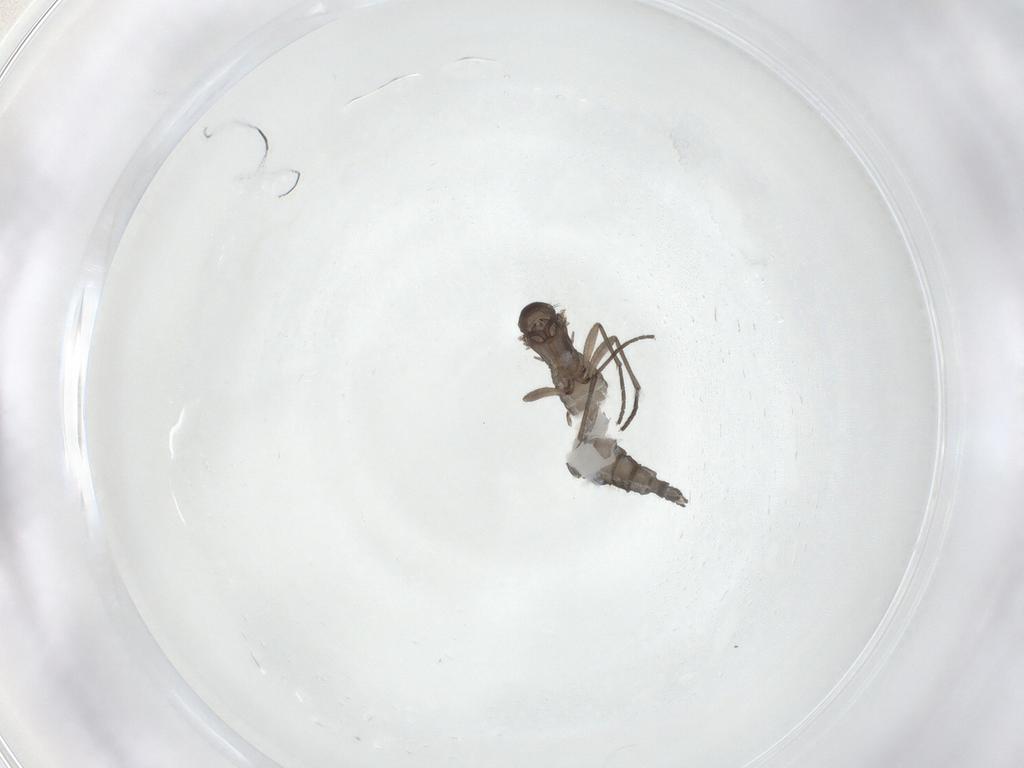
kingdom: Animalia
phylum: Arthropoda
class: Insecta
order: Diptera
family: Sciaridae
